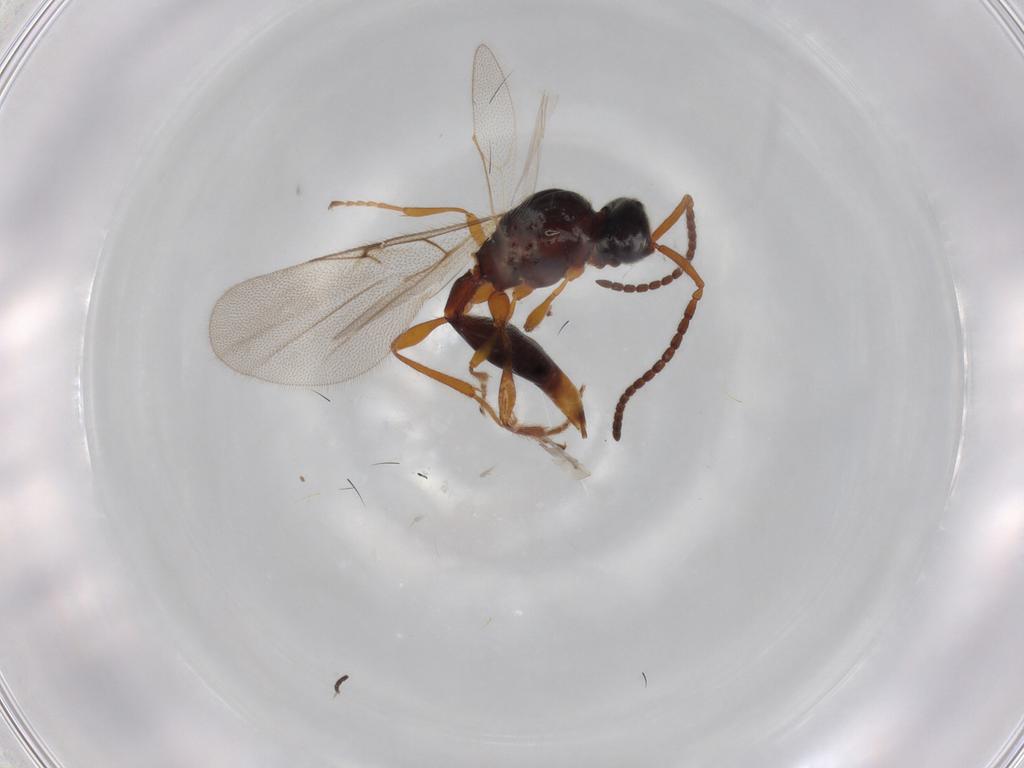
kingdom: Animalia
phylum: Arthropoda
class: Insecta
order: Hymenoptera
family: Diapriidae
